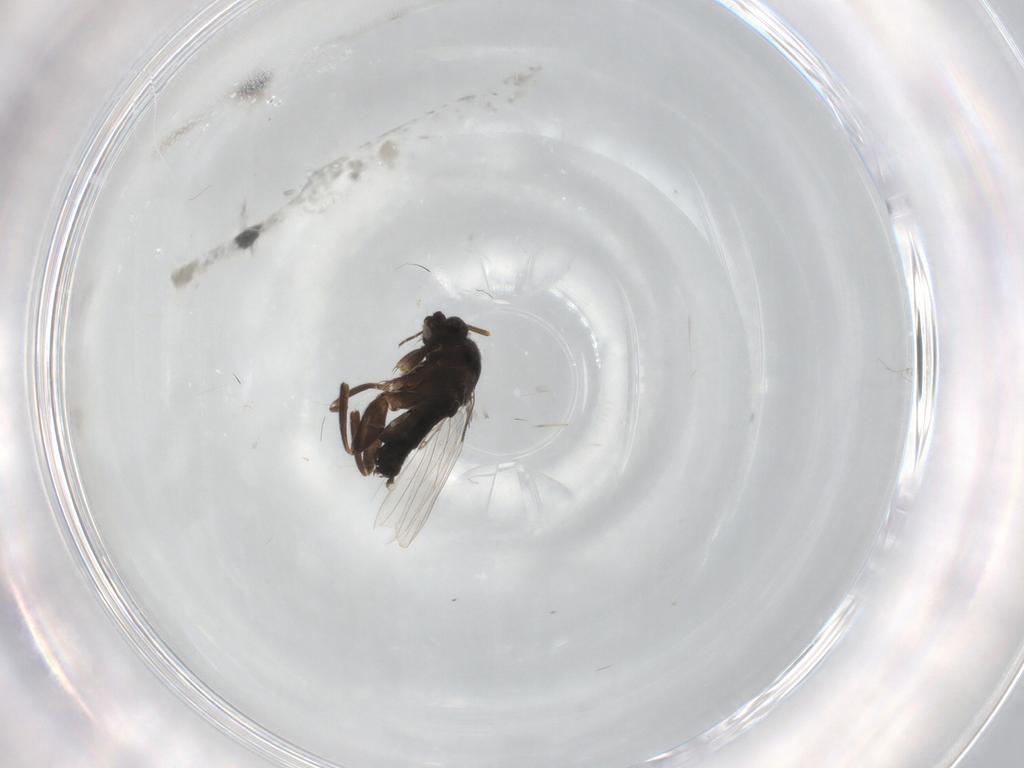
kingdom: Animalia
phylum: Arthropoda
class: Insecta
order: Diptera
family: Phoridae
